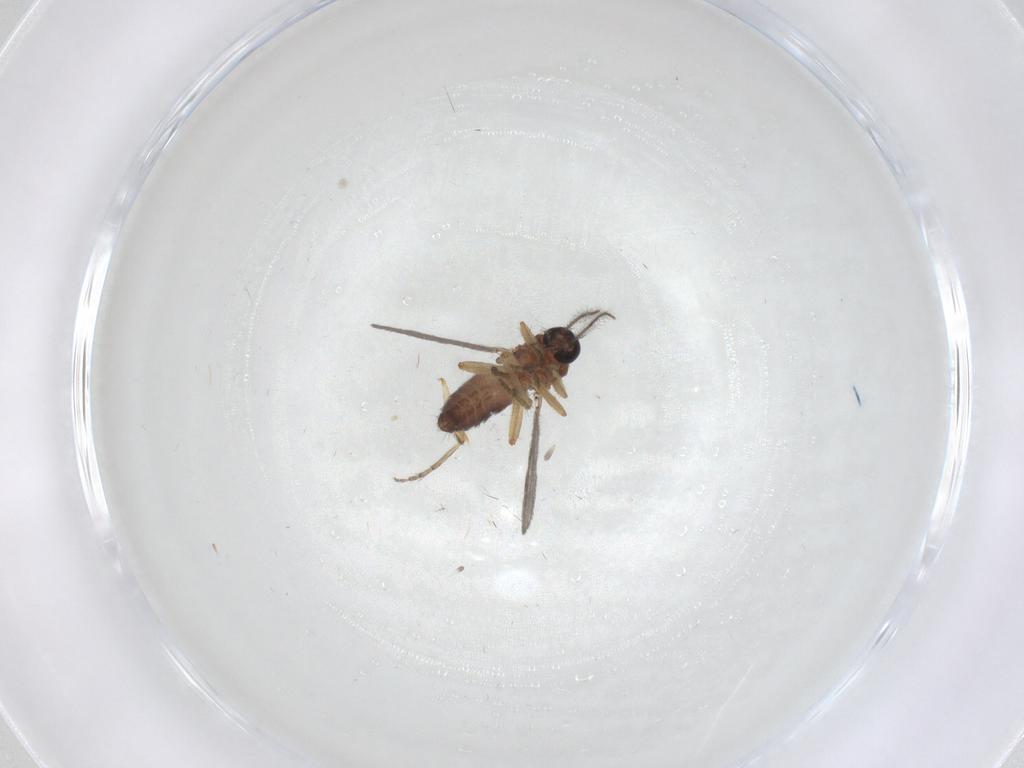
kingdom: Animalia
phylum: Arthropoda
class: Insecta
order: Diptera
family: Ceratopogonidae
